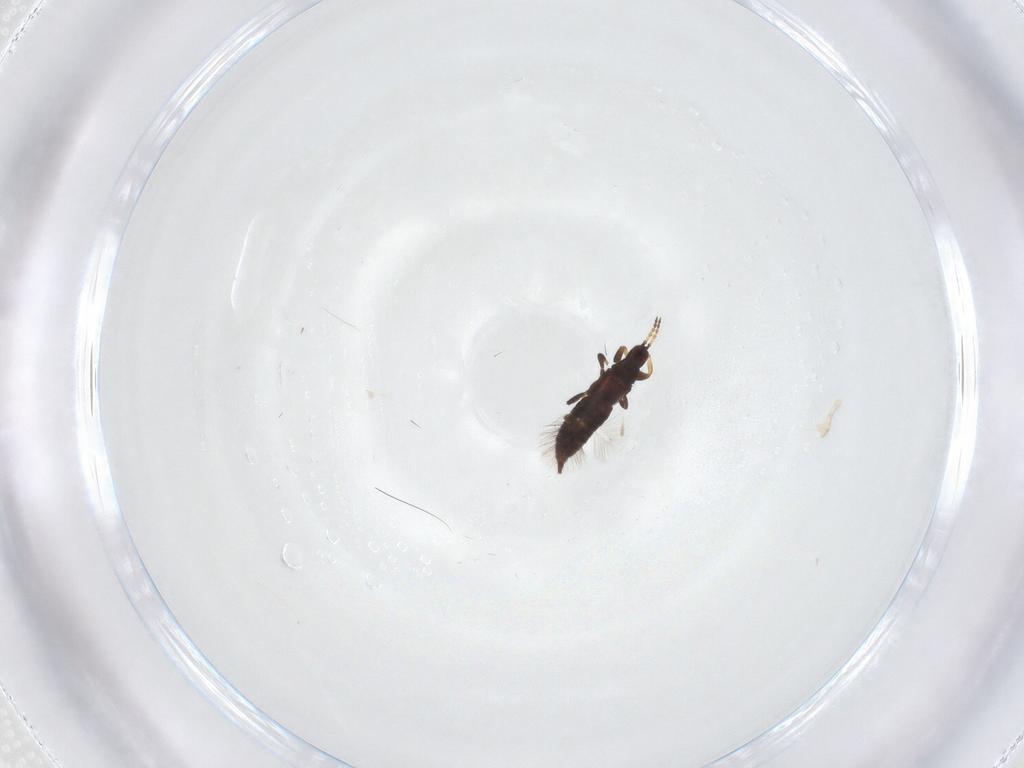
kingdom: Animalia
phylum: Arthropoda
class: Insecta
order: Thysanoptera
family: Phlaeothripidae
